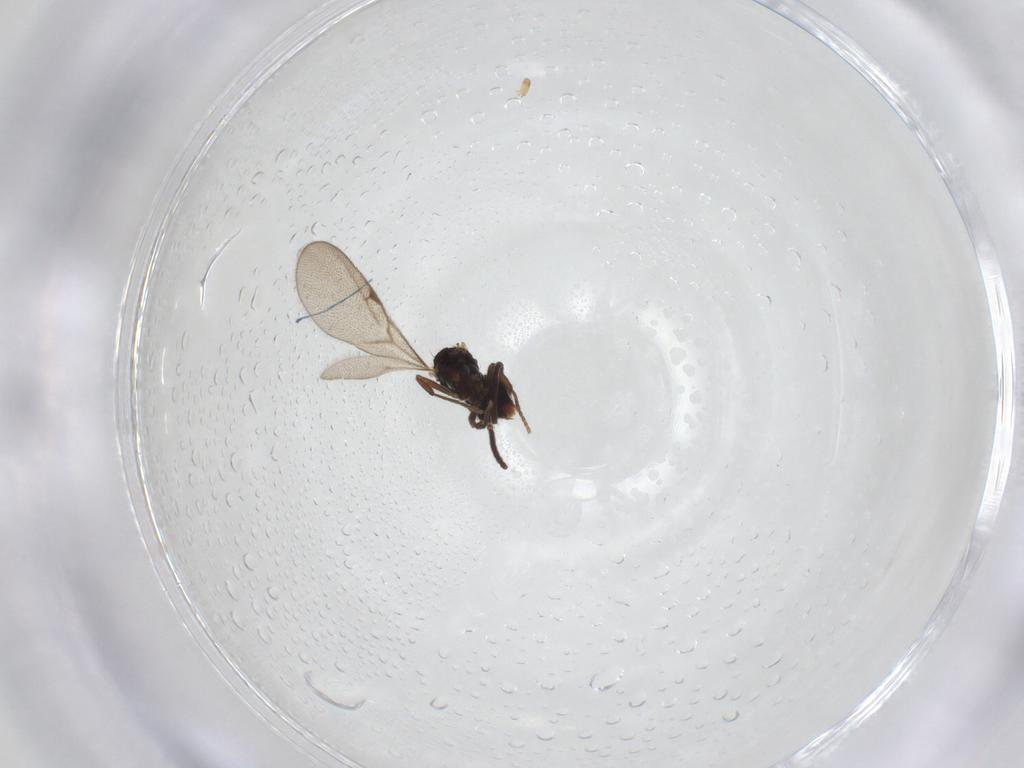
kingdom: Animalia
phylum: Arthropoda
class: Insecta
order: Hymenoptera
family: Formicidae
